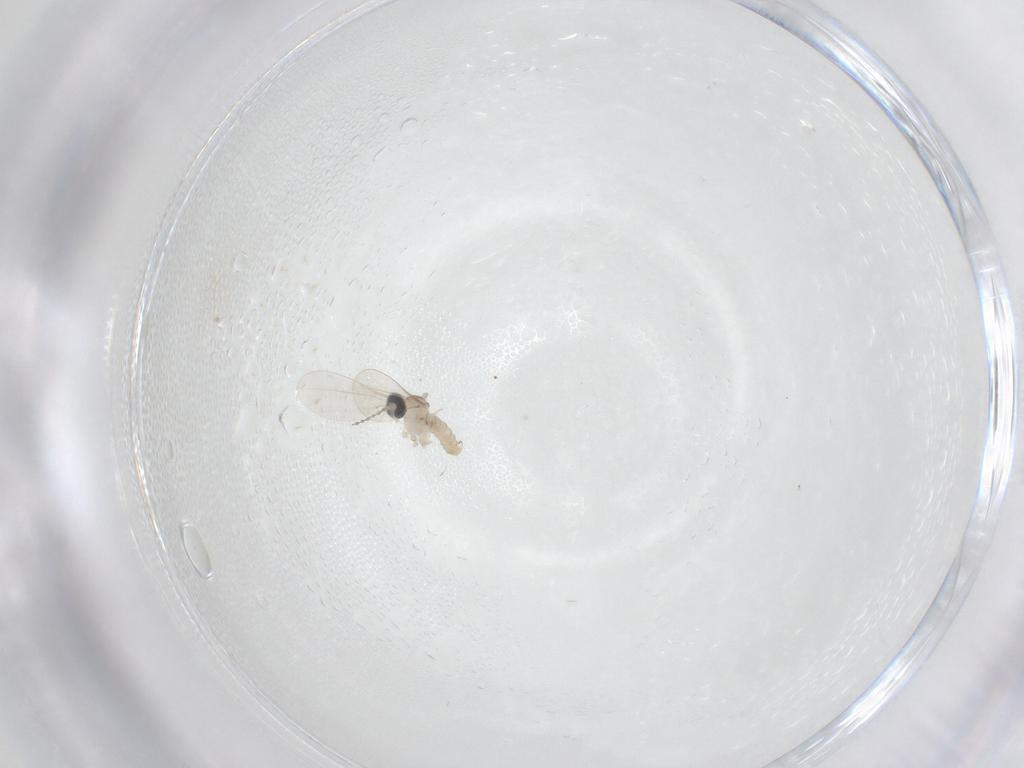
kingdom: Animalia
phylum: Arthropoda
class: Insecta
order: Diptera
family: Cecidomyiidae
